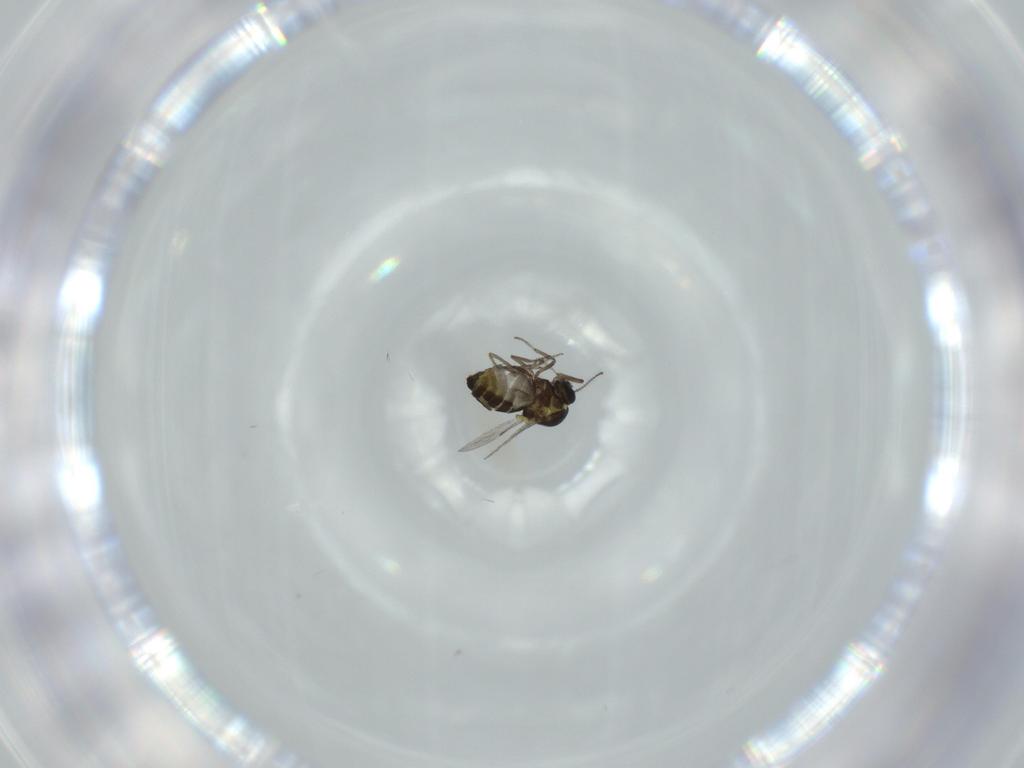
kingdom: Animalia
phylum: Arthropoda
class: Insecta
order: Diptera
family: Ceratopogonidae
